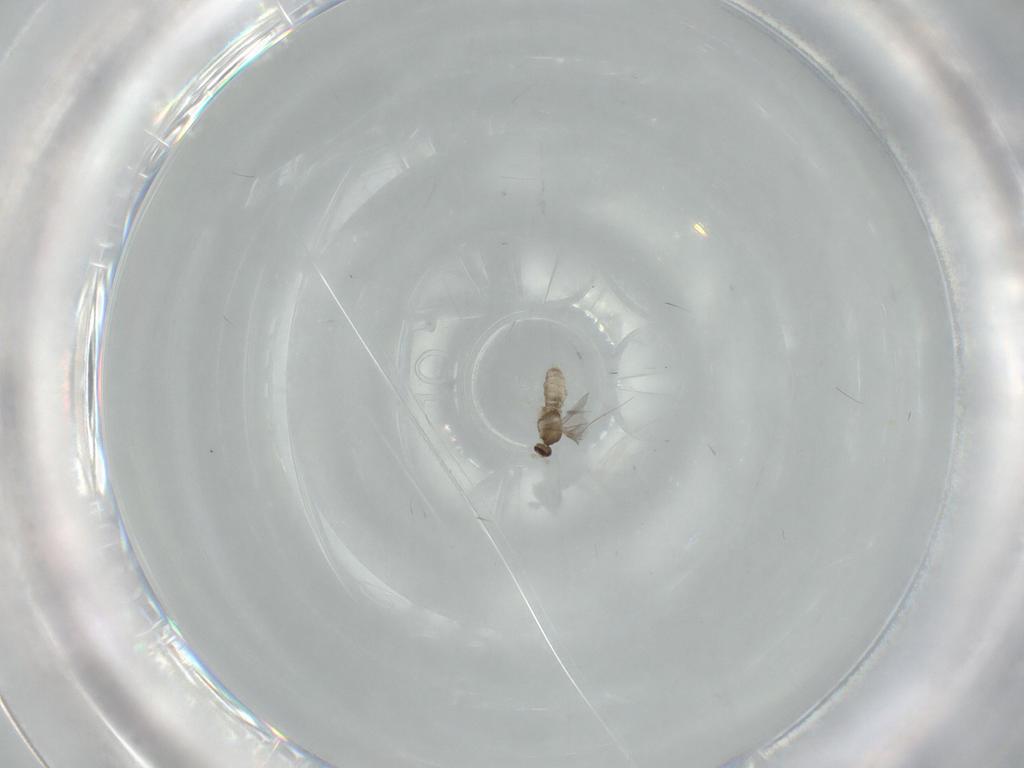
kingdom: Animalia
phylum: Arthropoda
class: Insecta
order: Diptera
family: Cecidomyiidae
